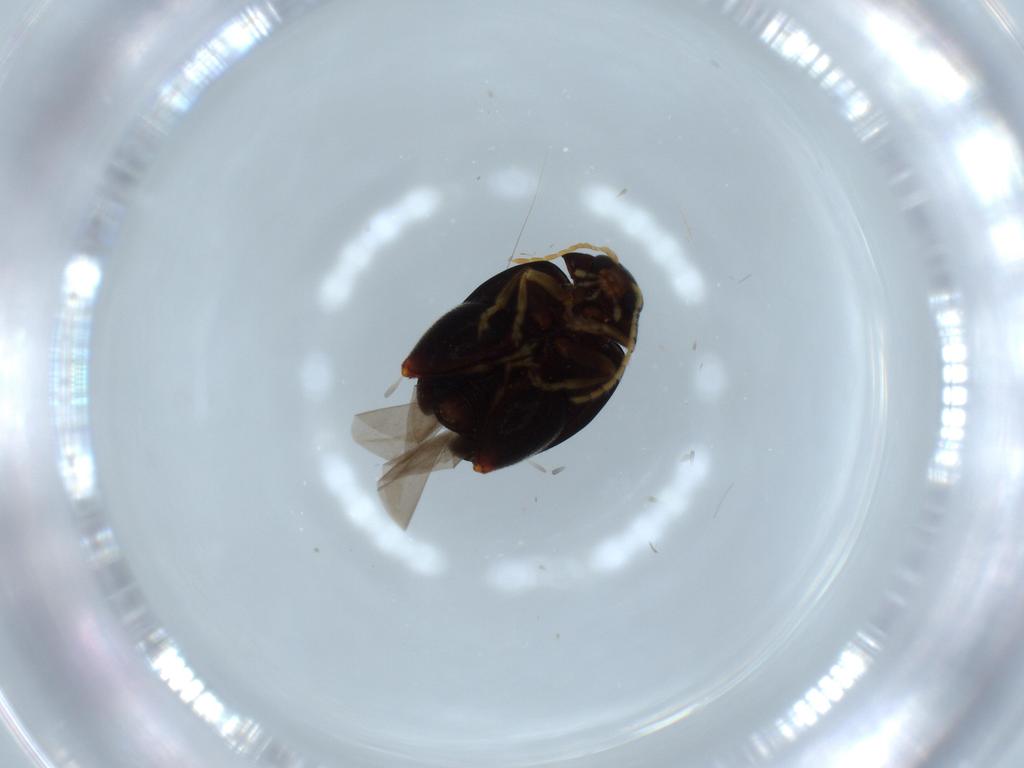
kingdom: Animalia
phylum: Arthropoda
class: Insecta
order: Coleoptera
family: Chrysomelidae
